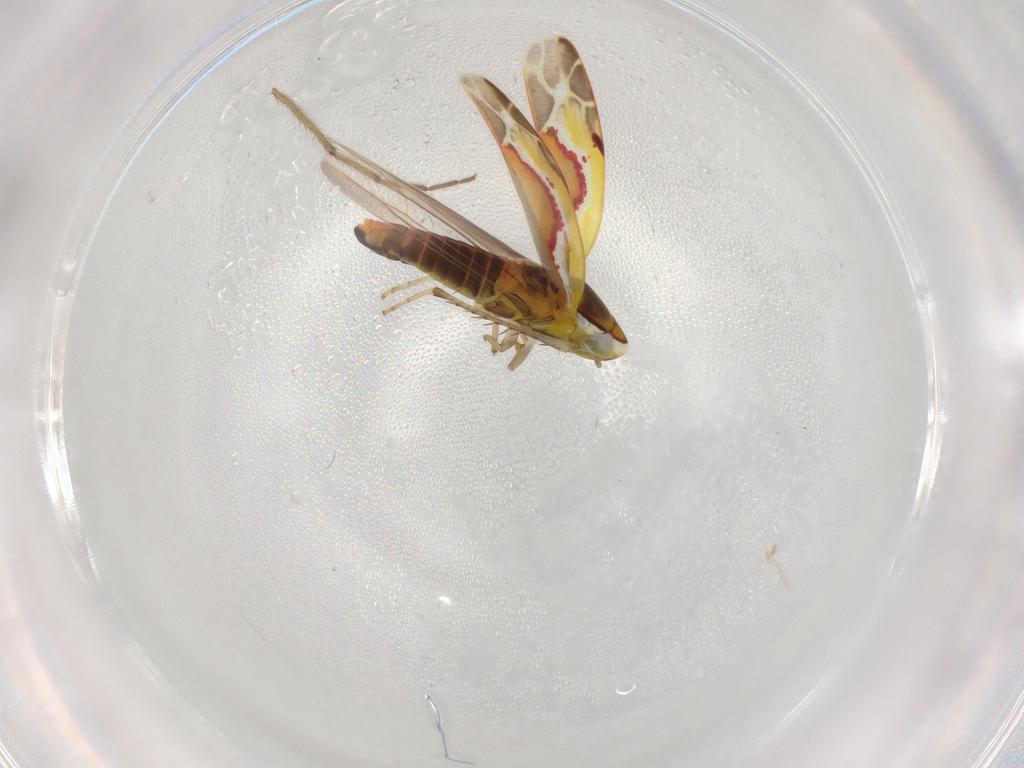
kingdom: Animalia
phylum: Arthropoda
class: Insecta
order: Hemiptera
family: Cicadellidae
